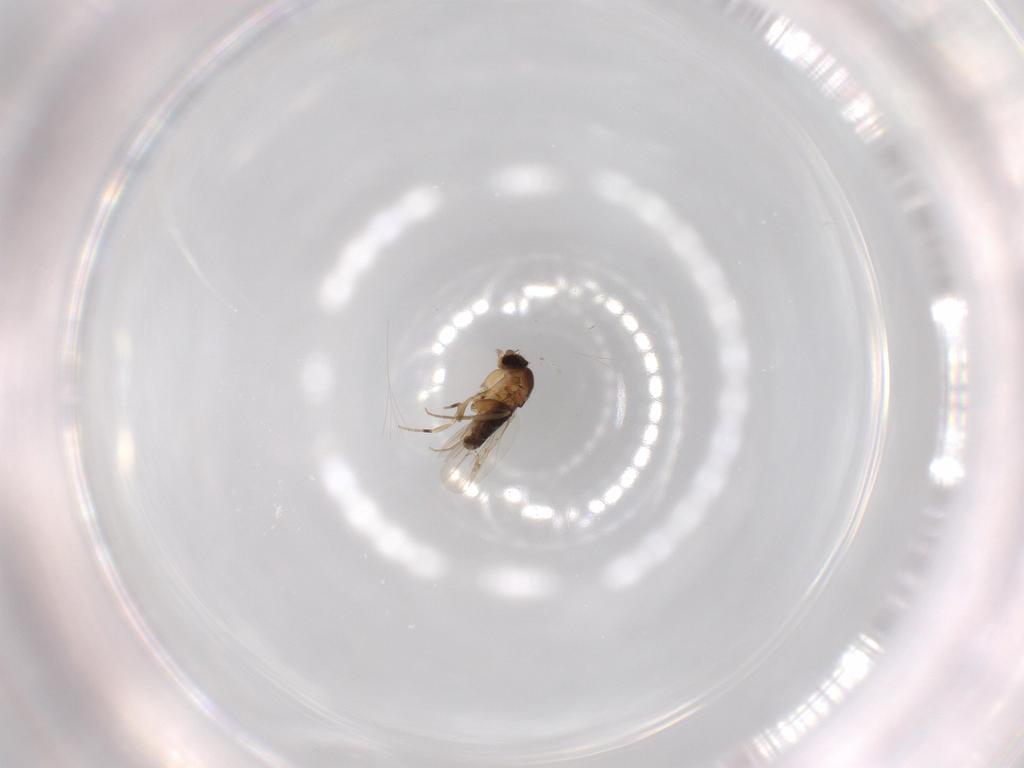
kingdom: Animalia
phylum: Arthropoda
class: Insecta
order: Diptera
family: Phoridae
